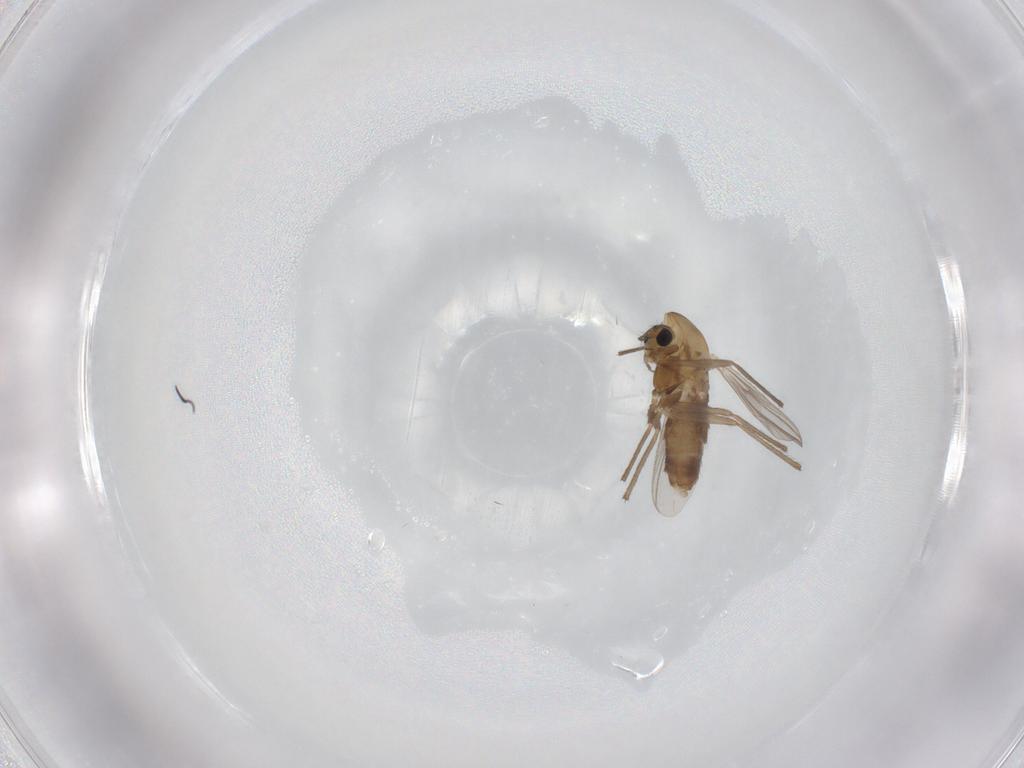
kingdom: Animalia
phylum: Arthropoda
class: Insecta
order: Diptera
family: Chironomidae
